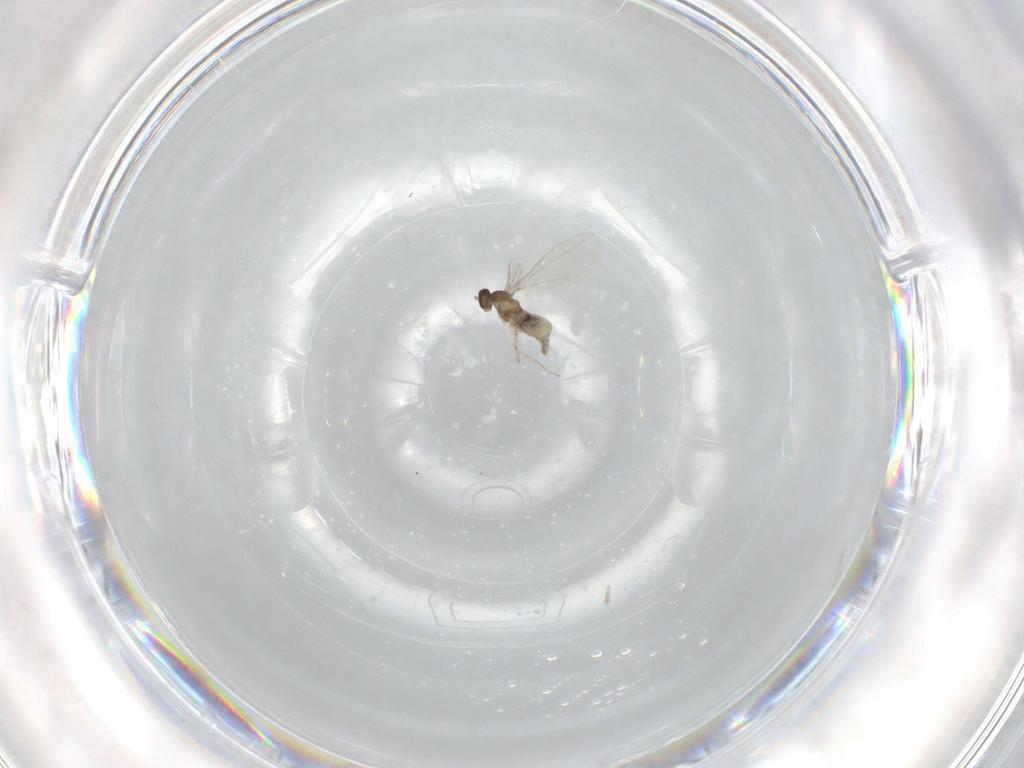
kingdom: Animalia
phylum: Arthropoda
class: Insecta
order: Diptera
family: Cecidomyiidae
